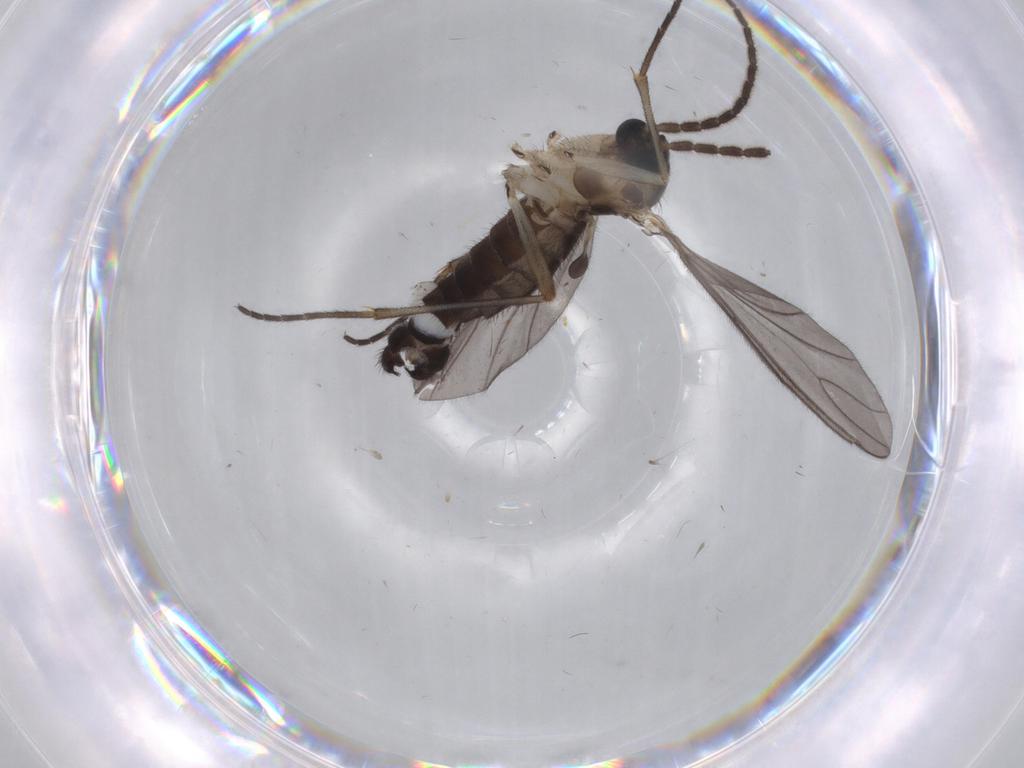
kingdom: Animalia
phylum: Arthropoda
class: Insecta
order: Diptera
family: Sciaridae
